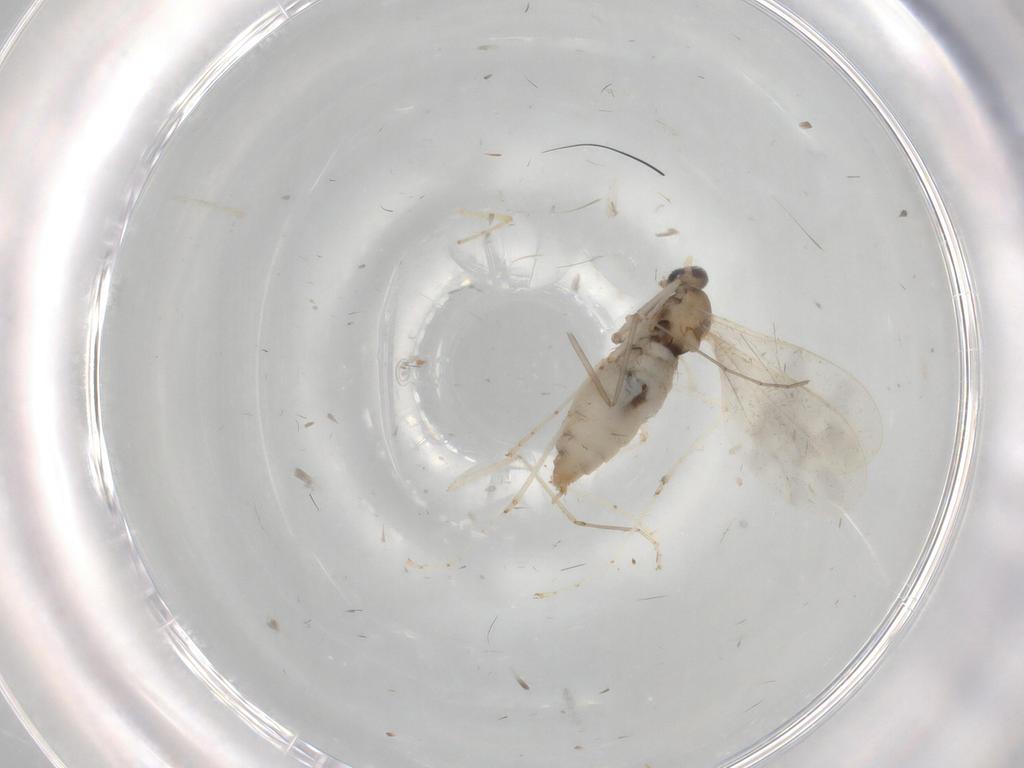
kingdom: Animalia
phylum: Arthropoda
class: Insecta
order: Diptera
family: Cecidomyiidae
